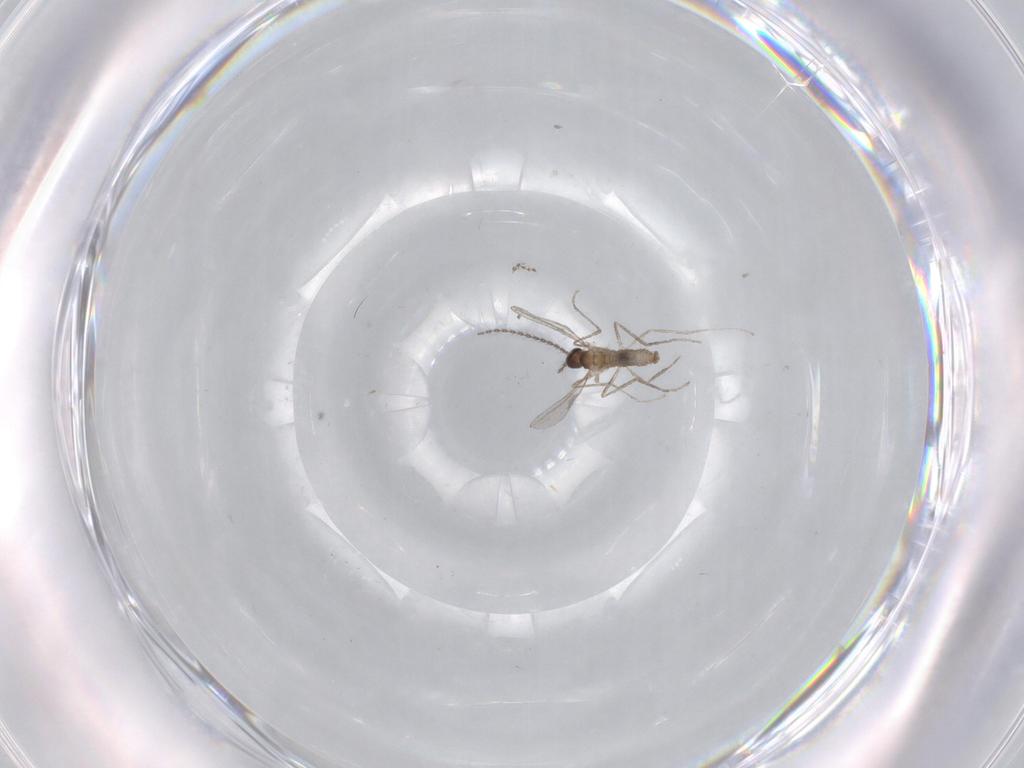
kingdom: Animalia
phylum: Arthropoda
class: Insecta
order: Diptera
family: Cecidomyiidae
